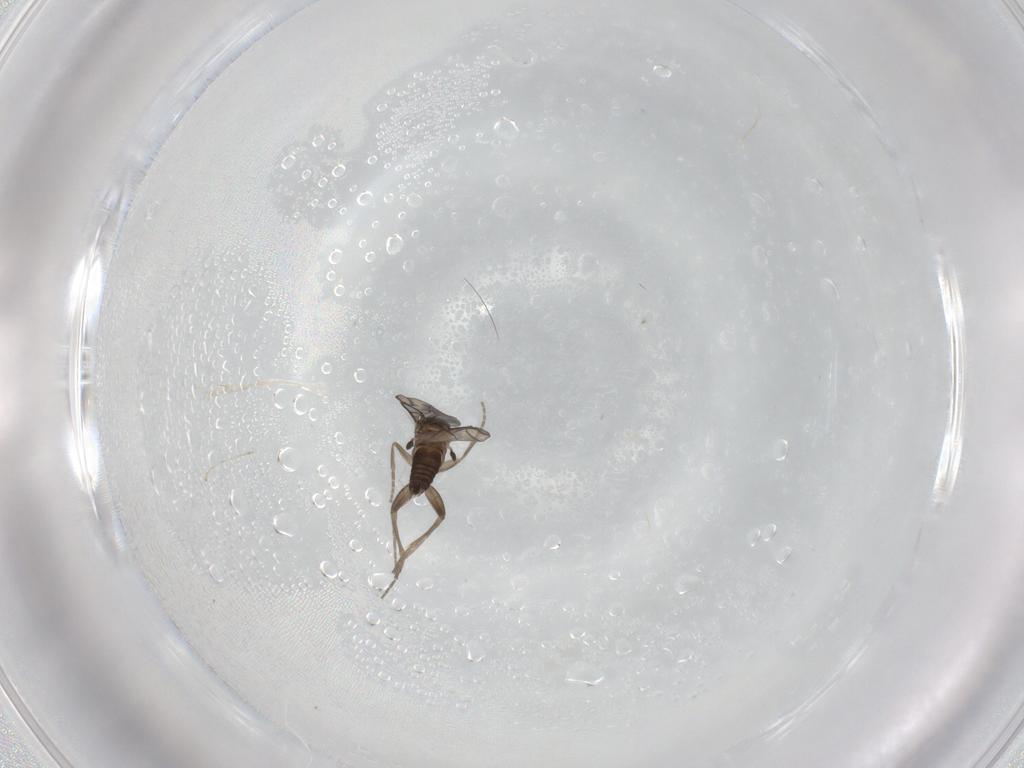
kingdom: Animalia
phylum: Arthropoda
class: Insecta
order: Diptera
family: Phoridae
